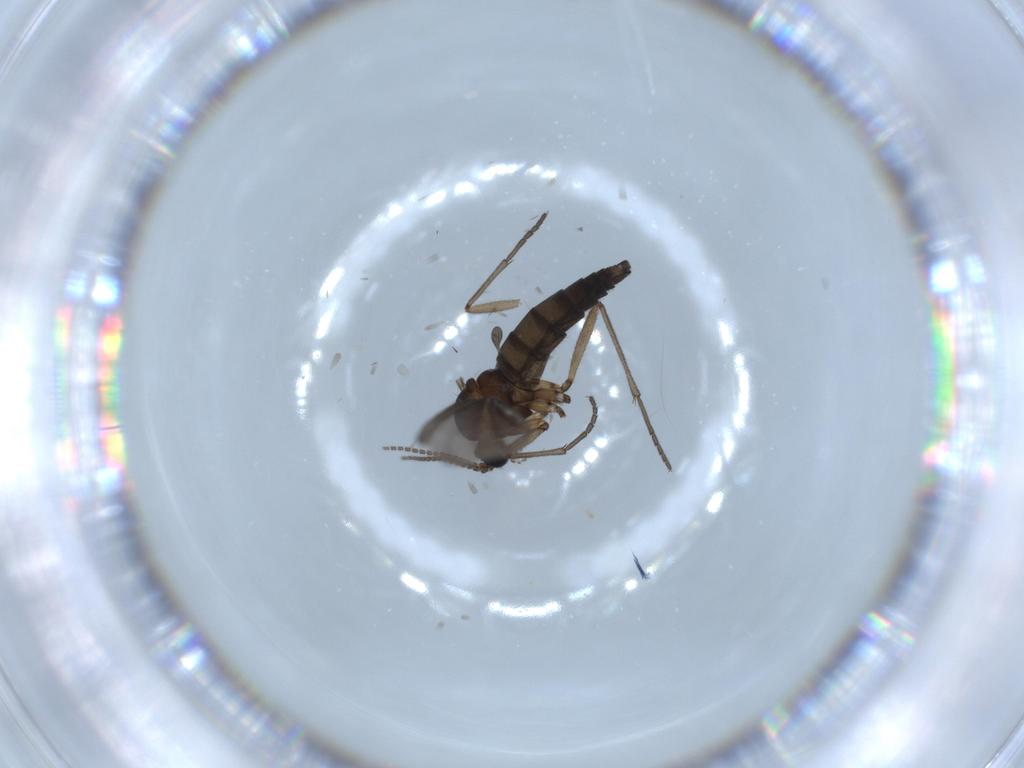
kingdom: Animalia
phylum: Arthropoda
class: Insecta
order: Diptera
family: Sciaridae
